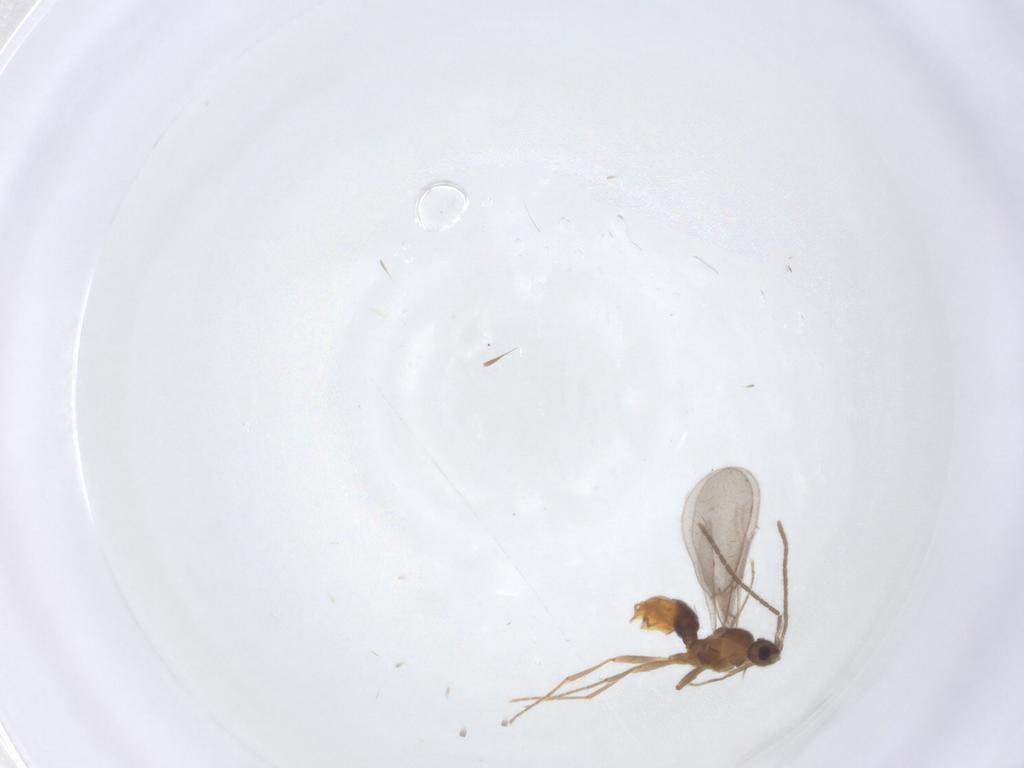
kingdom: Animalia
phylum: Arthropoda
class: Insecta
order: Hymenoptera
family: Formicidae
